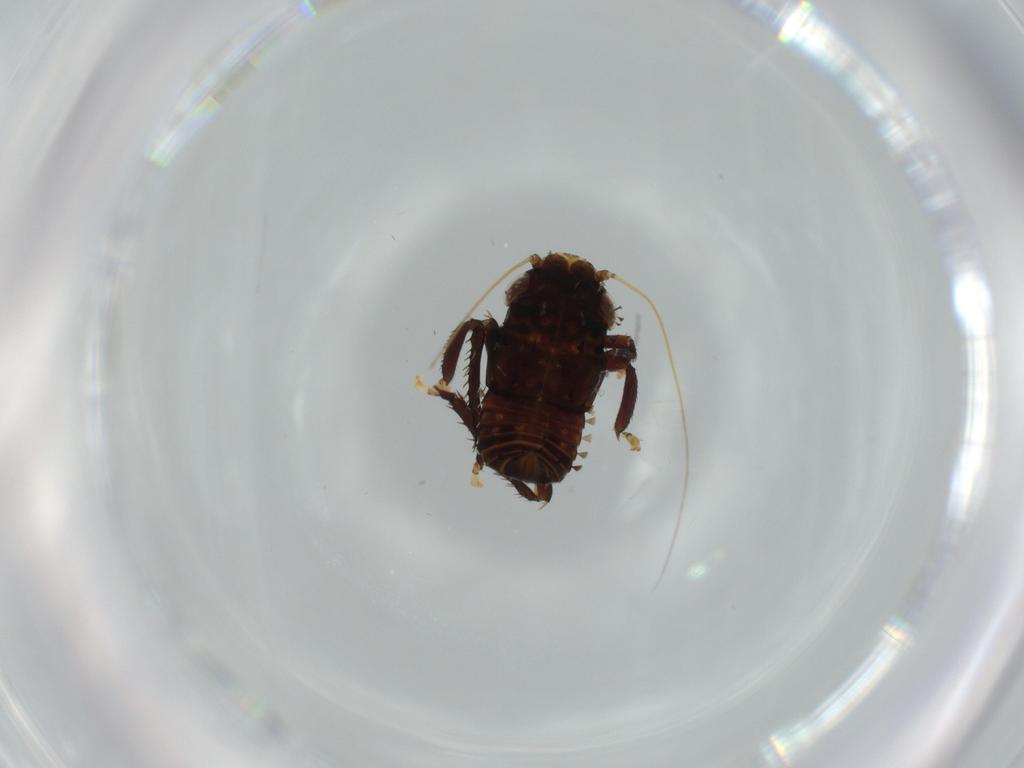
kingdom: Animalia
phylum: Arthropoda
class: Insecta
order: Hemiptera
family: Cicadellidae
